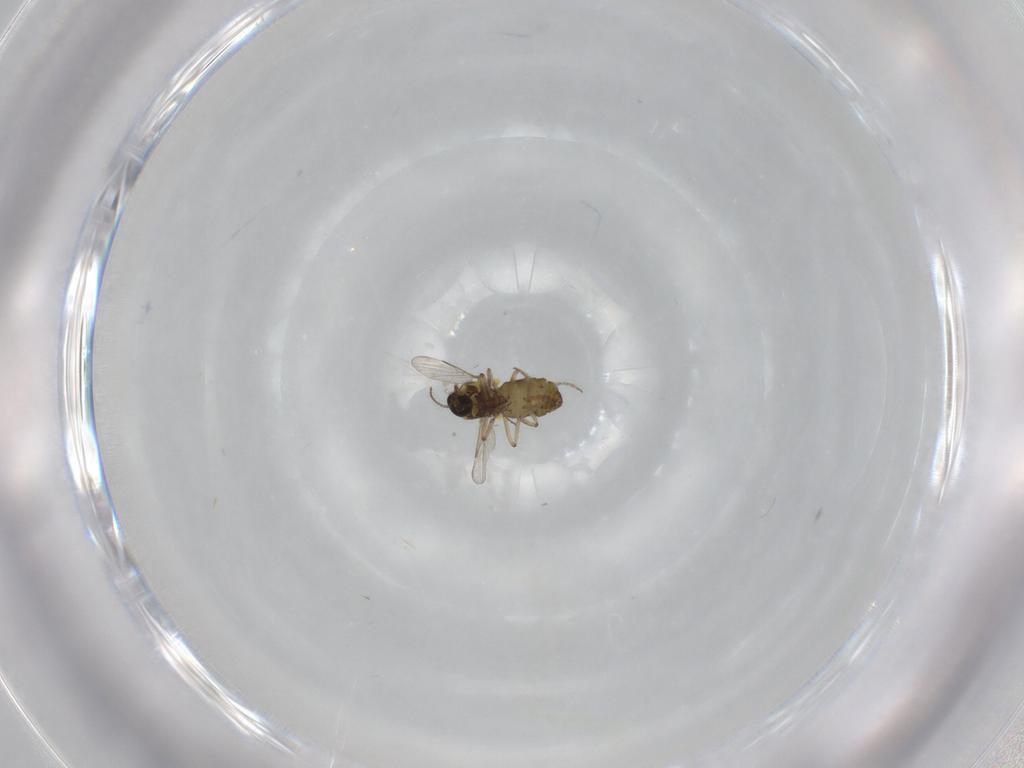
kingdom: Animalia
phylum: Arthropoda
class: Insecta
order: Diptera
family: Ceratopogonidae
